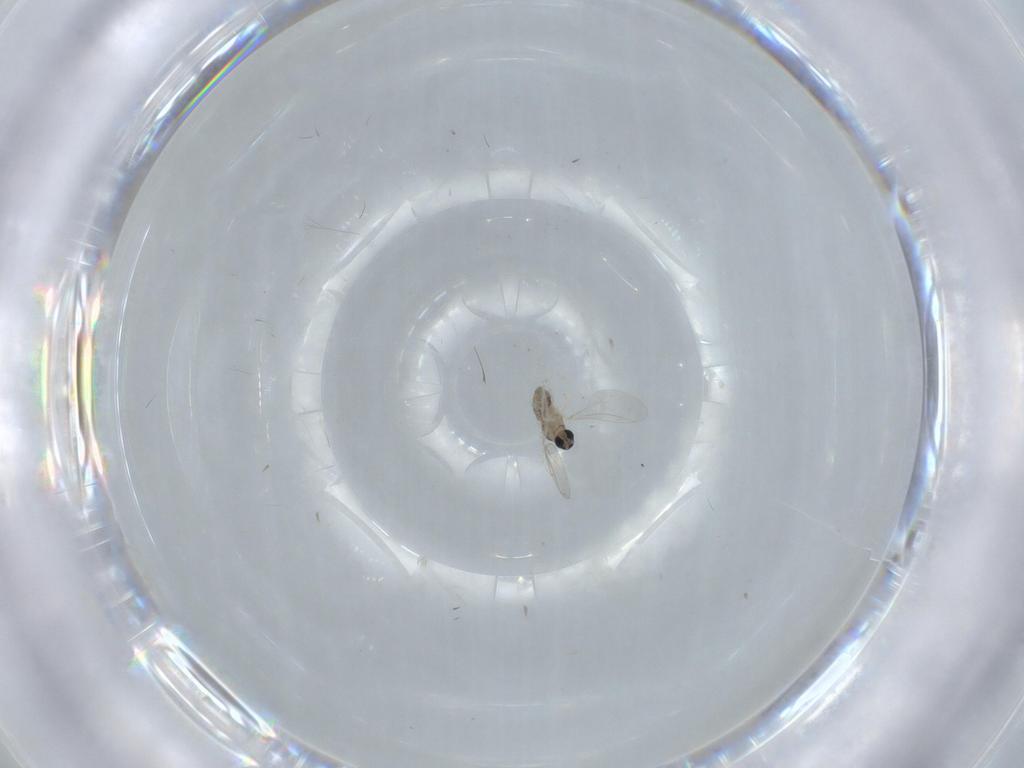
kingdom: Animalia
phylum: Arthropoda
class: Insecta
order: Diptera
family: Cecidomyiidae
